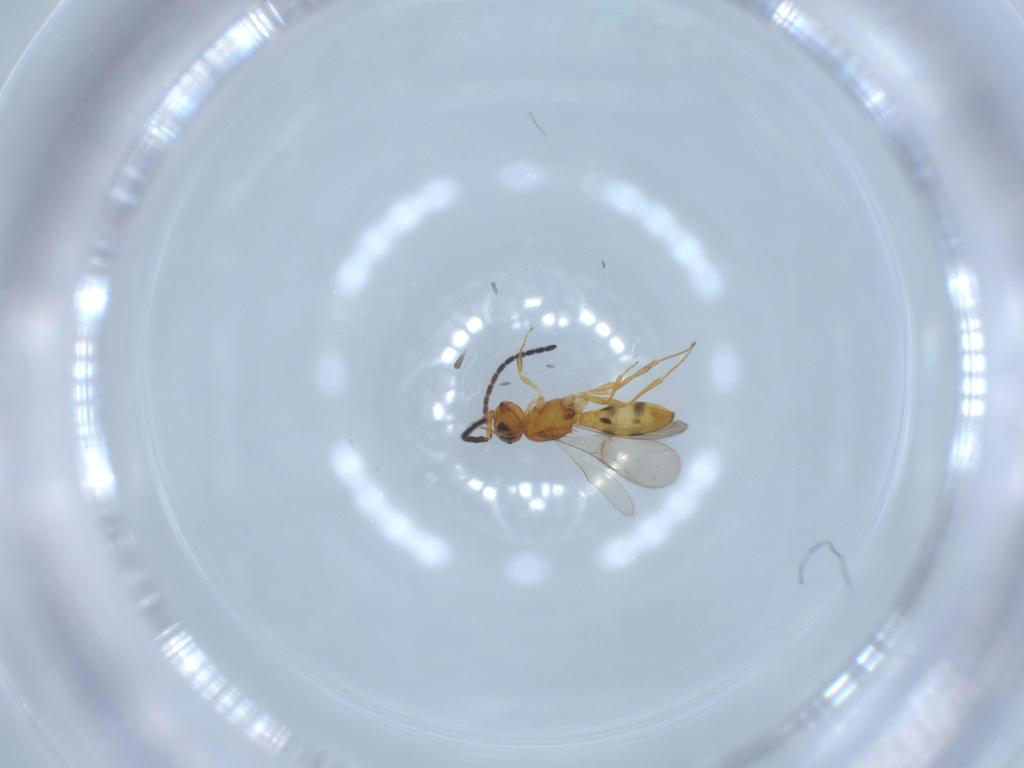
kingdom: Animalia
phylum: Arthropoda
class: Insecta
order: Hymenoptera
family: Scelionidae
